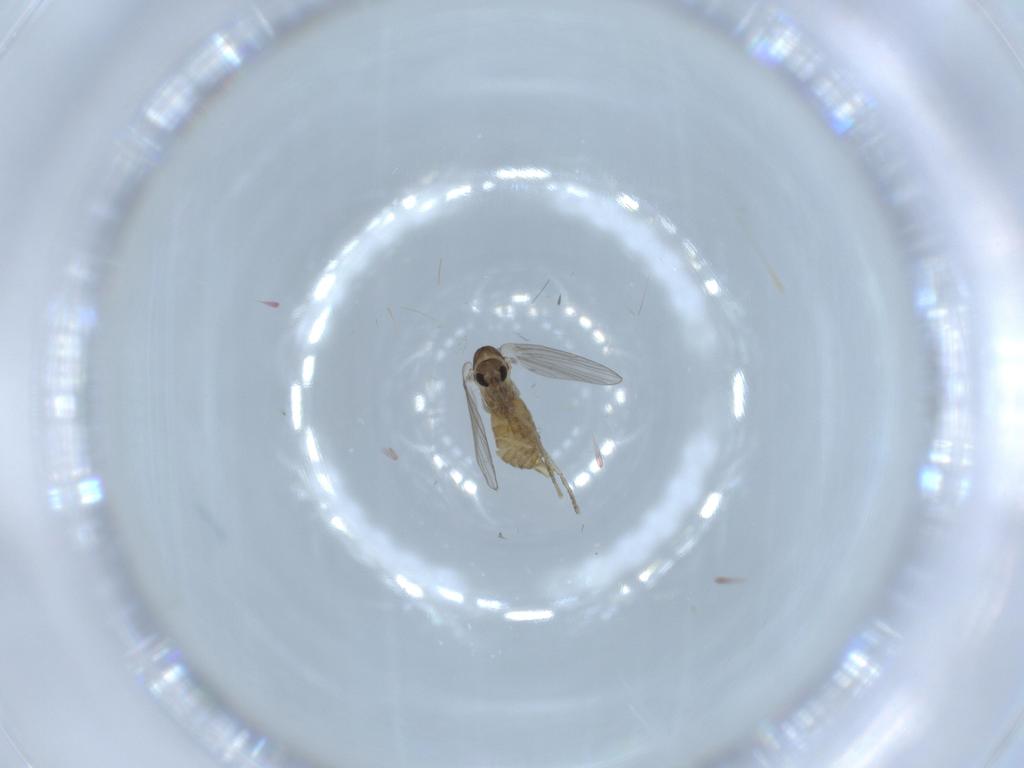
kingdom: Animalia
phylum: Arthropoda
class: Insecta
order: Diptera
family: Psychodidae
